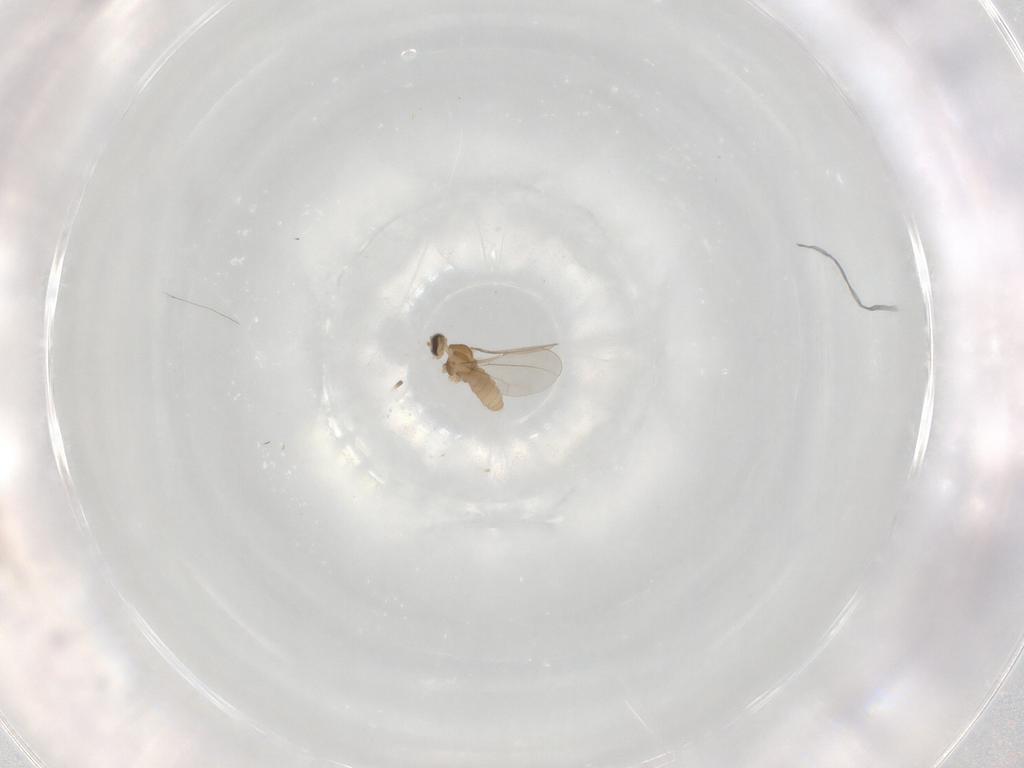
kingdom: Animalia
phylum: Arthropoda
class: Insecta
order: Diptera
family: Cecidomyiidae
